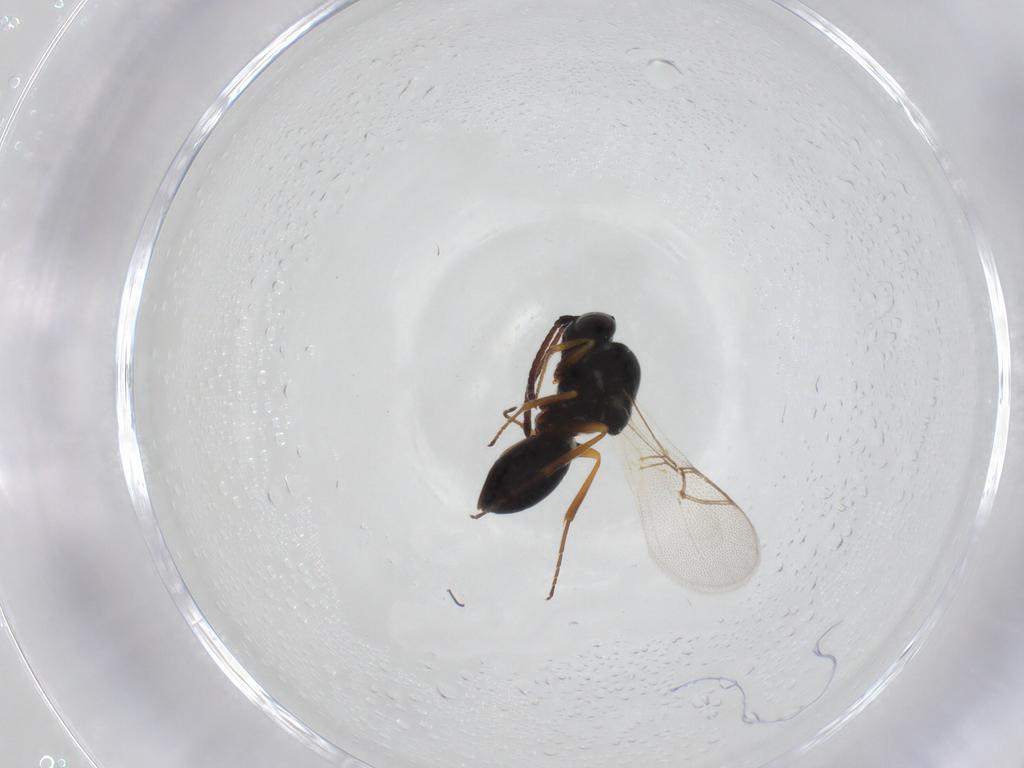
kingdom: Animalia
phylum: Arthropoda
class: Insecta
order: Hymenoptera
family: Figitidae
